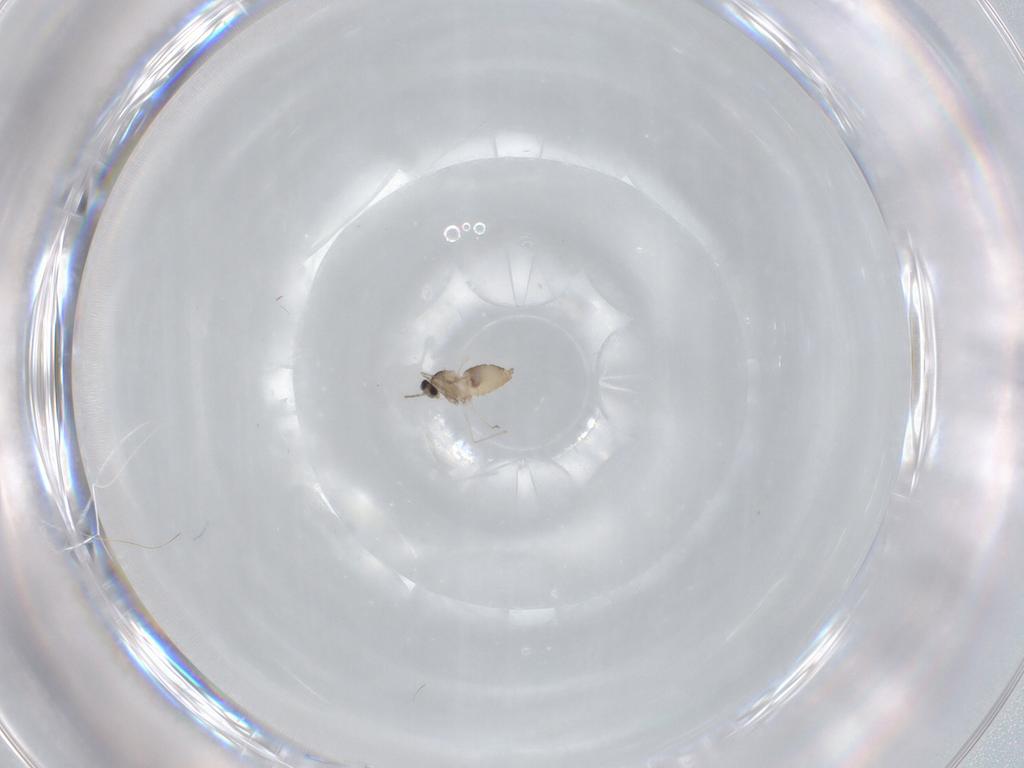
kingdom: Animalia
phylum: Arthropoda
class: Insecta
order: Diptera
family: Cecidomyiidae
